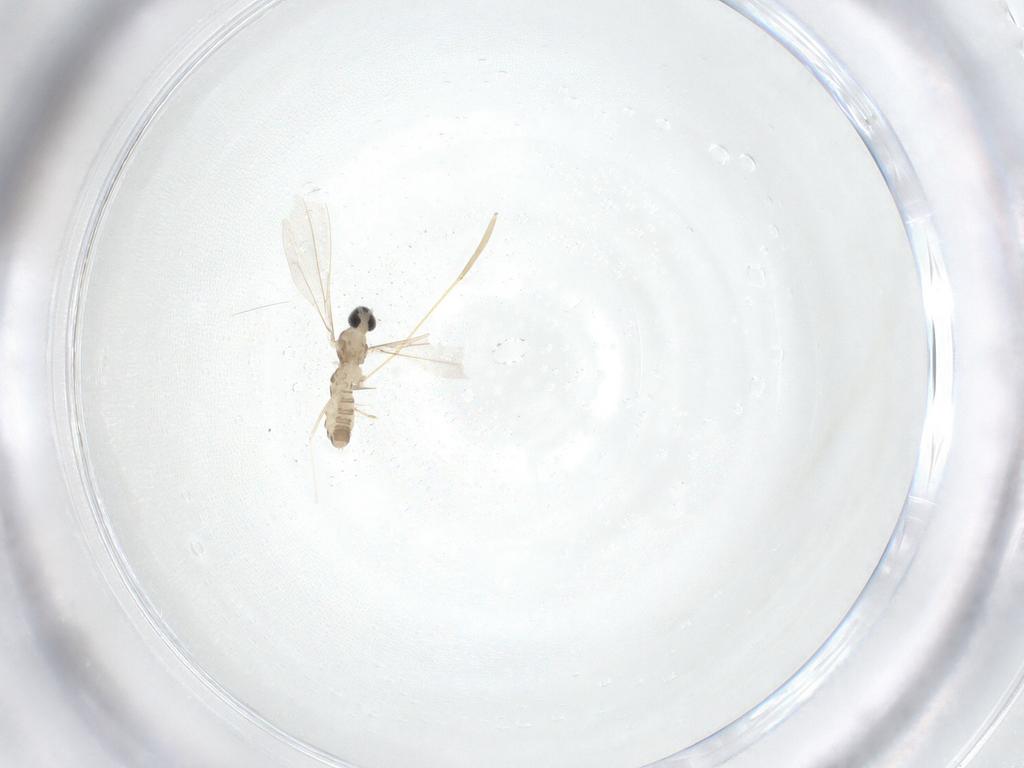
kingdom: Animalia
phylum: Arthropoda
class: Insecta
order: Diptera
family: Cecidomyiidae
